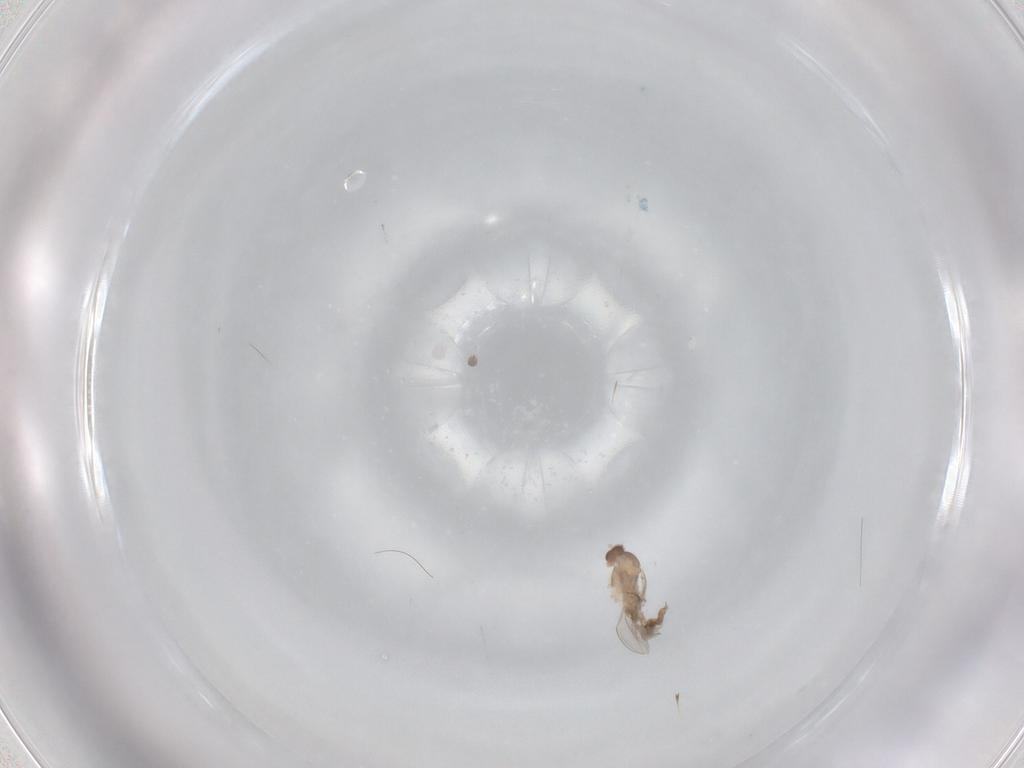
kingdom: Animalia
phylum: Arthropoda
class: Insecta
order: Diptera
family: Cecidomyiidae
